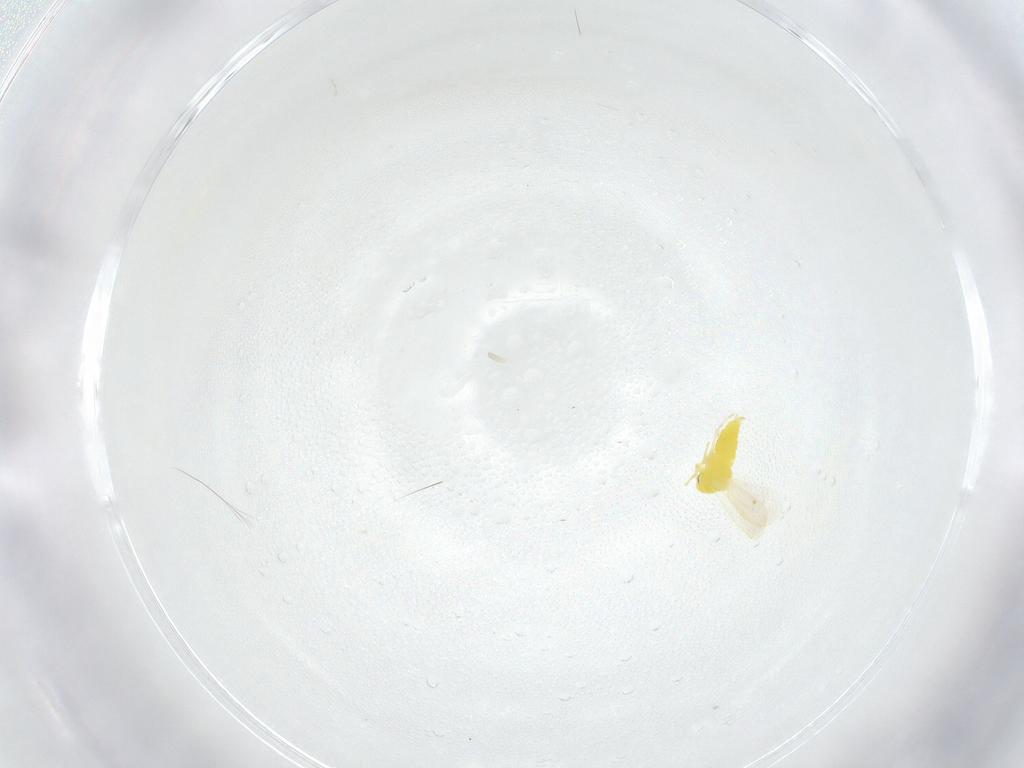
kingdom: Animalia
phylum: Arthropoda
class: Insecta
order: Hemiptera
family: Aleyrodidae
